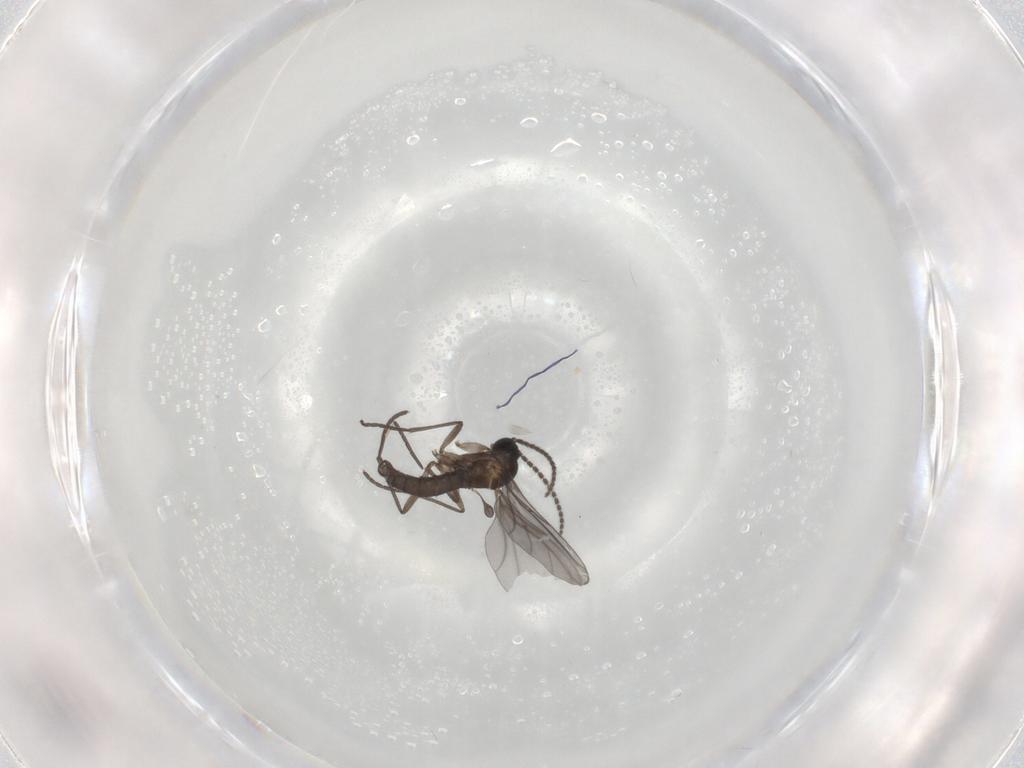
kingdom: Animalia
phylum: Arthropoda
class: Insecta
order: Diptera
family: Sciaridae
